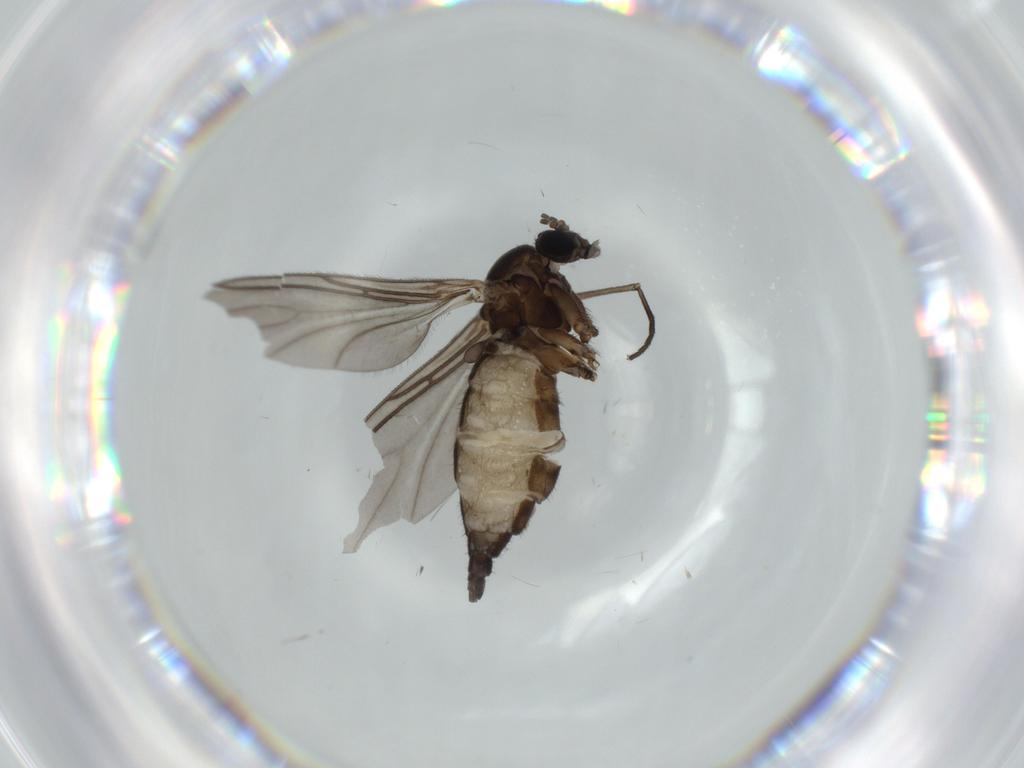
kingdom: Animalia
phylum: Arthropoda
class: Insecta
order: Diptera
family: Sciaridae
